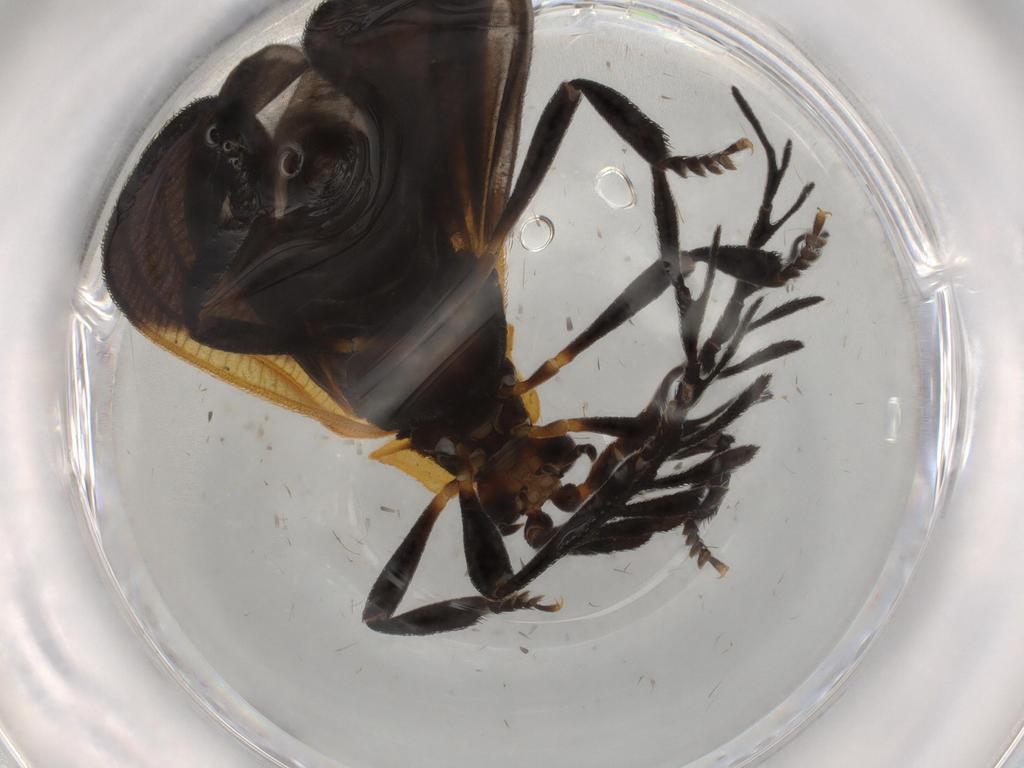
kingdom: Animalia
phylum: Arthropoda
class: Insecta
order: Coleoptera
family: Lycidae
